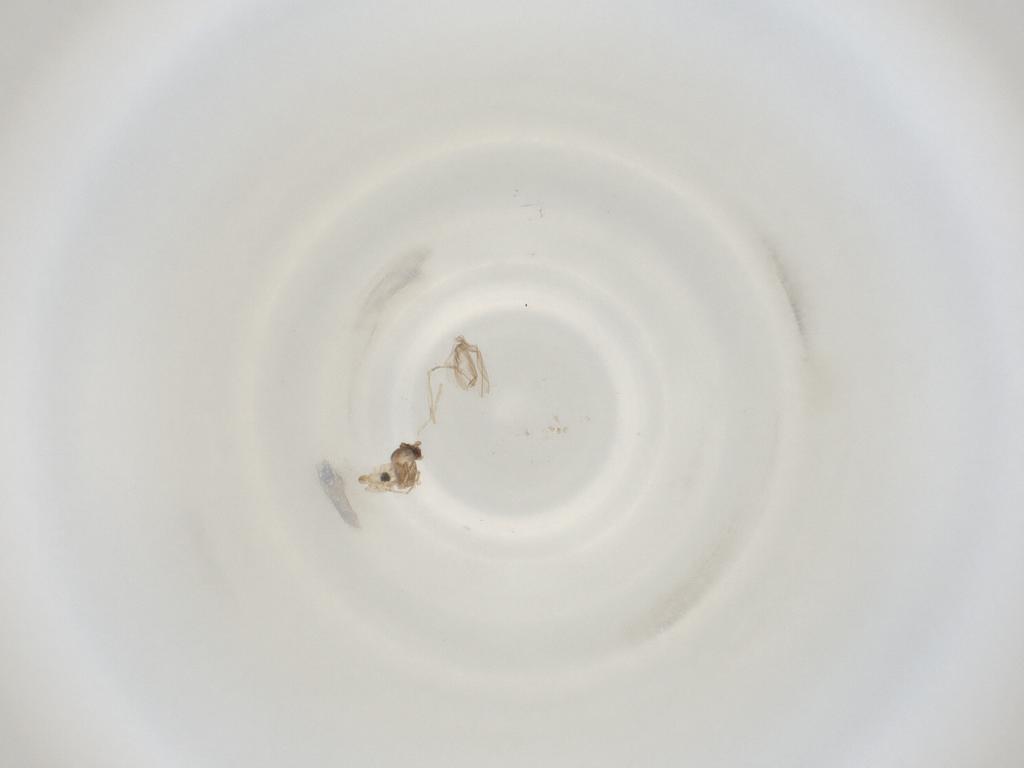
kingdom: Animalia
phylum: Arthropoda
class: Insecta
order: Diptera
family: Cecidomyiidae
